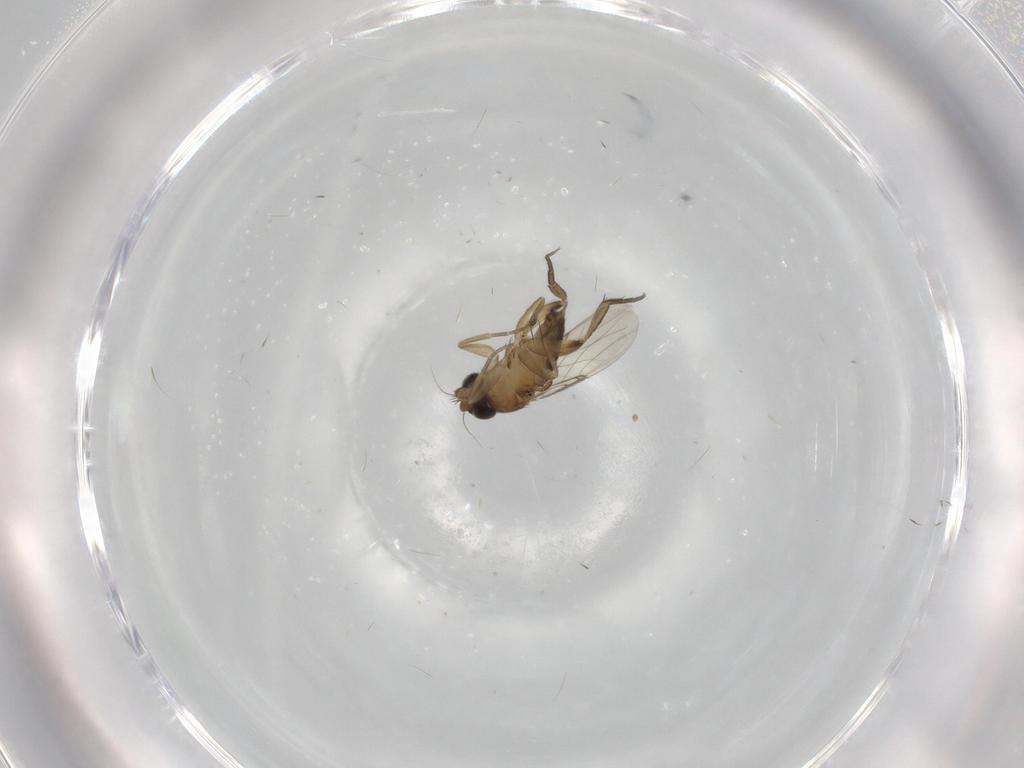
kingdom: Animalia
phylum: Arthropoda
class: Insecta
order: Diptera
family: Phoridae
